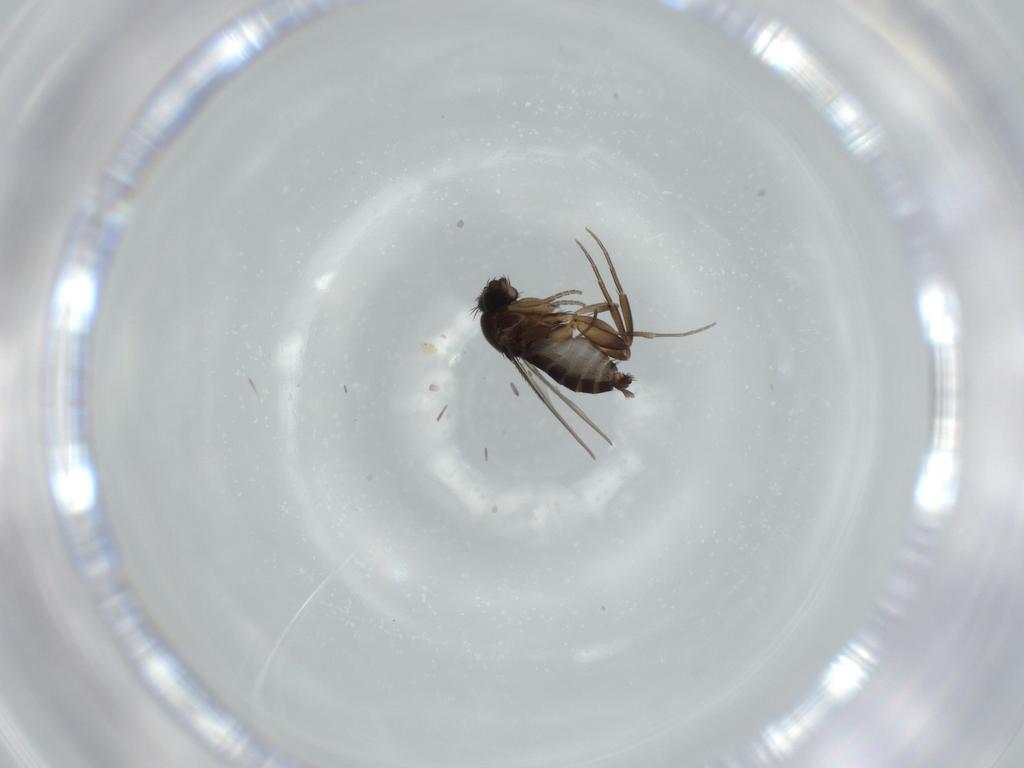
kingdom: Animalia
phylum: Arthropoda
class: Insecta
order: Diptera
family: Phoridae
